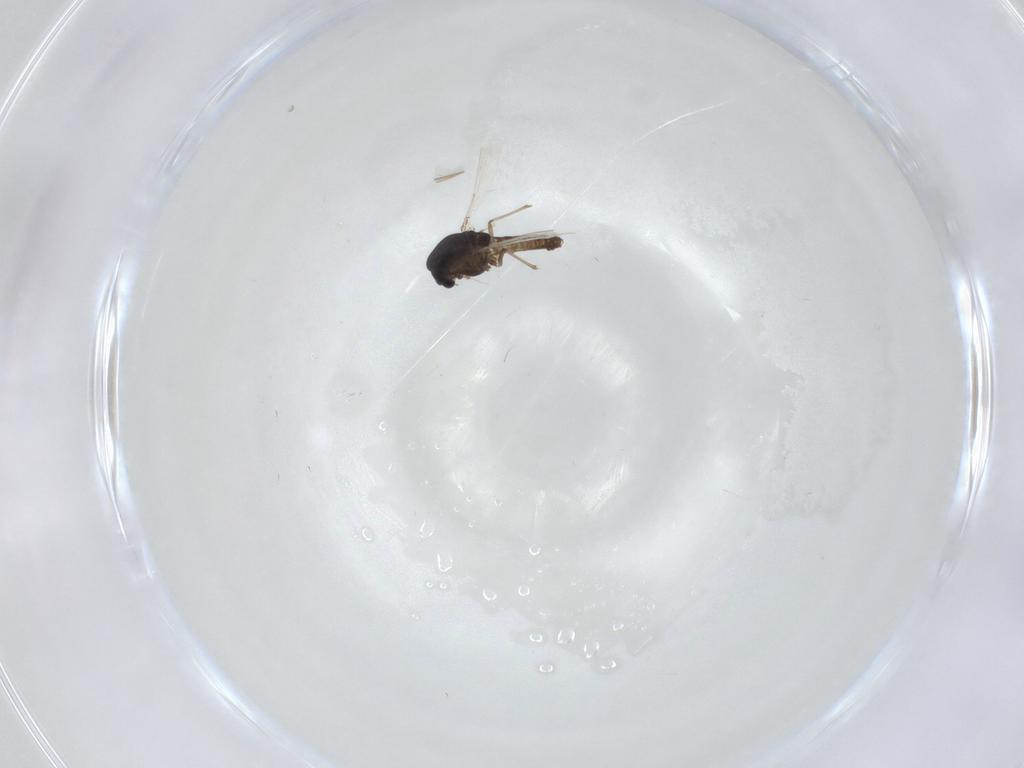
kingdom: Animalia
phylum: Arthropoda
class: Insecta
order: Diptera
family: Chironomidae
